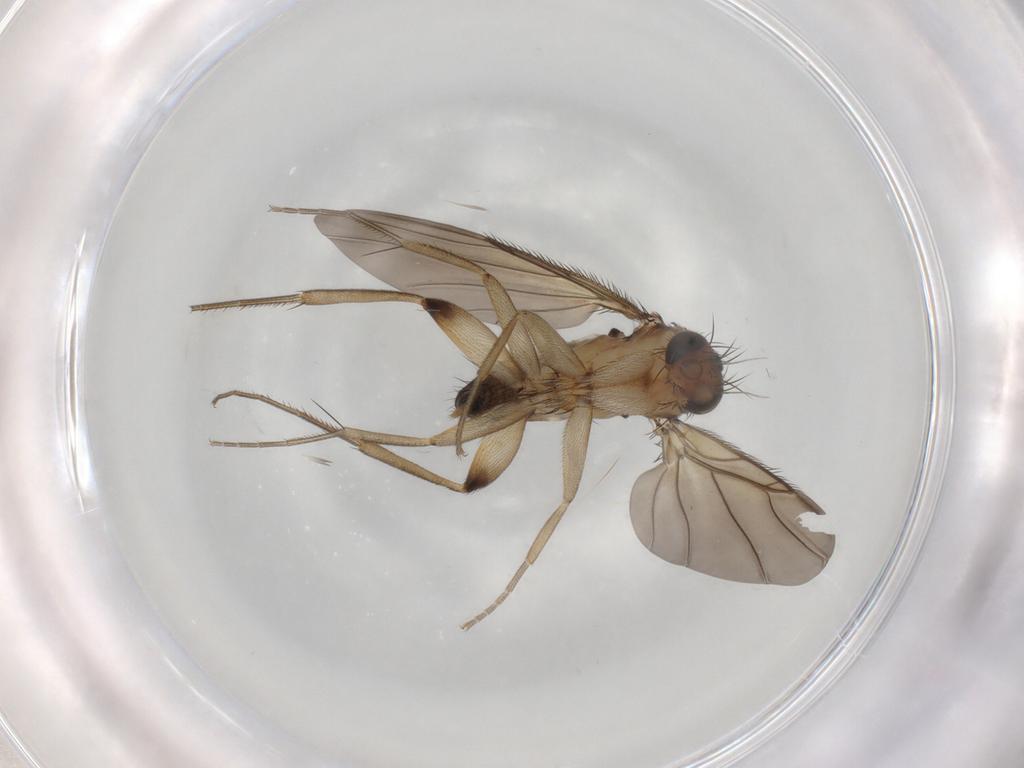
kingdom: Animalia
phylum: Arthropoda
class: Insecta
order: Diptera
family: Phoridae
